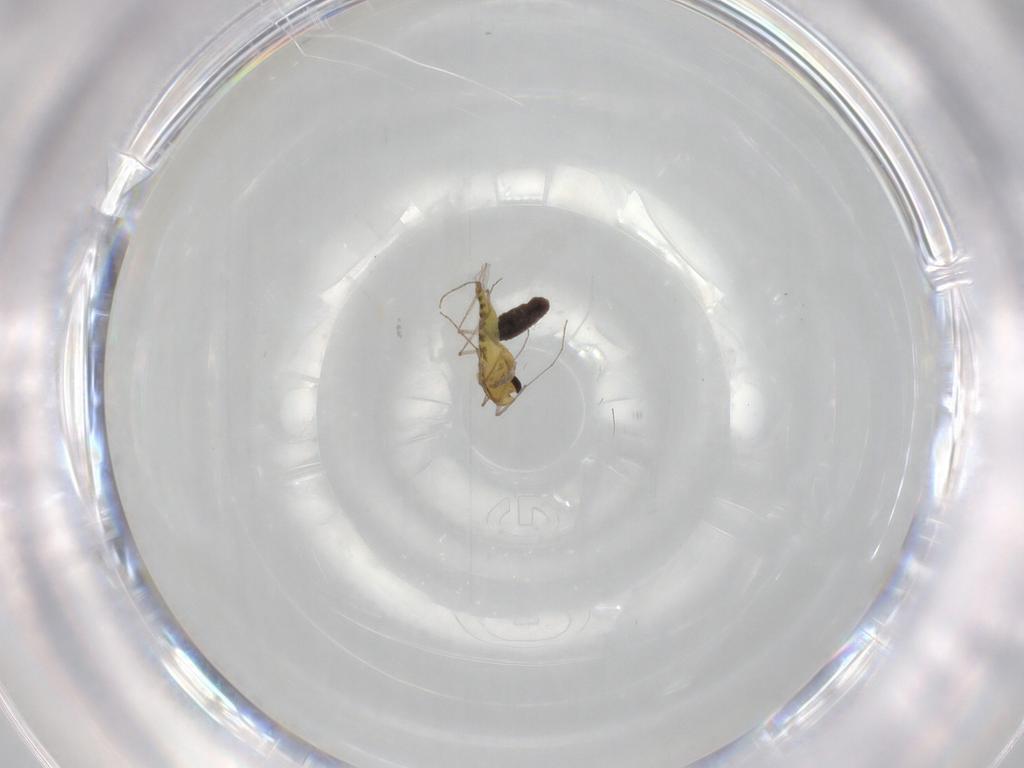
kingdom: Animalia
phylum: Arthropoda
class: Insecta
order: Diptera
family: Chironomidae
